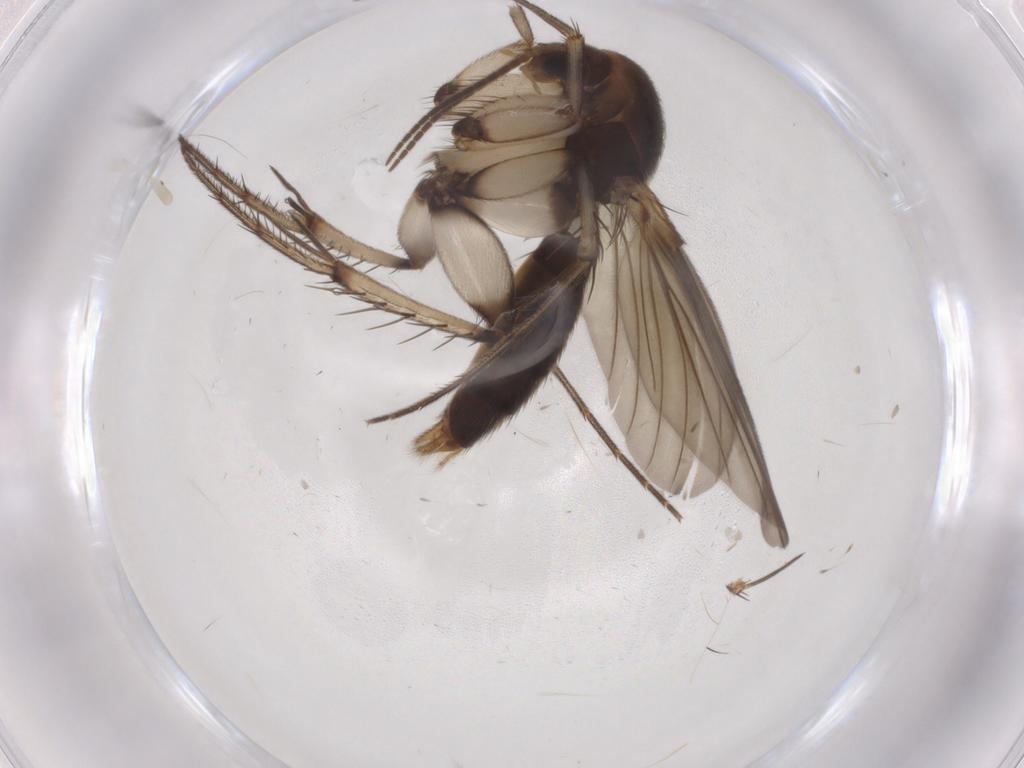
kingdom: Animalia
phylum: Arthropoda
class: Insecta
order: Diptera
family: Mycetophilidae
